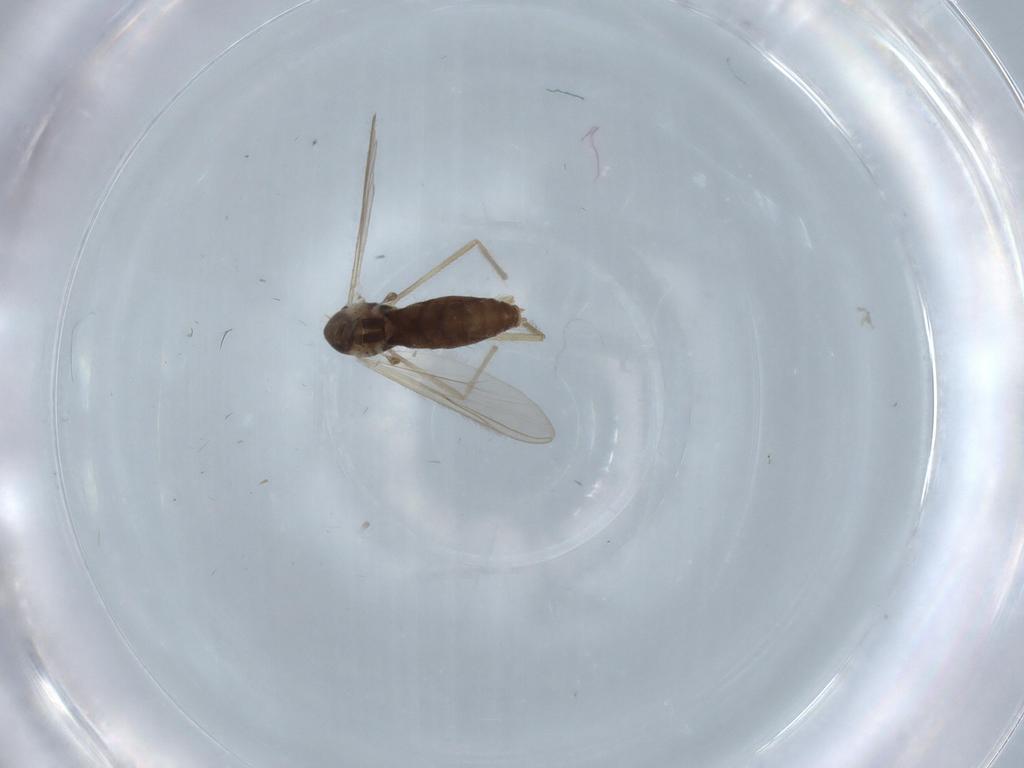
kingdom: Animalia
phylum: Arthropoda
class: Insecta
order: Diptera
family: Chironomidae
